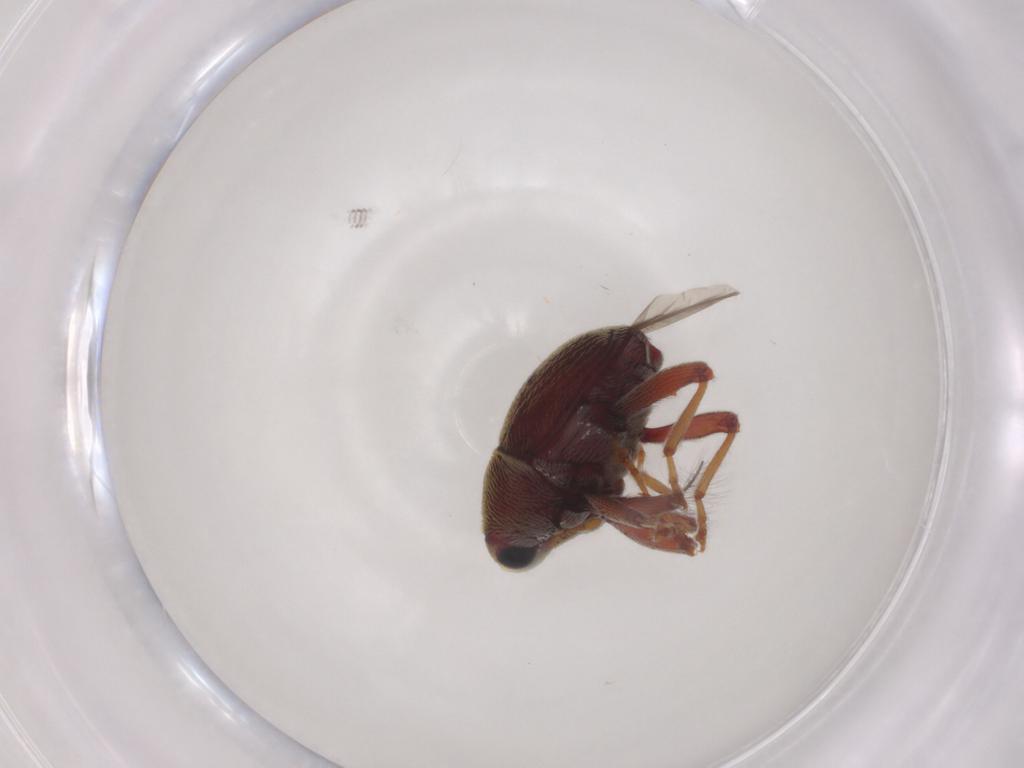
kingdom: Animalia
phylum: Arthropoda
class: Insecta
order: Coleoptera
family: Curculionidae
